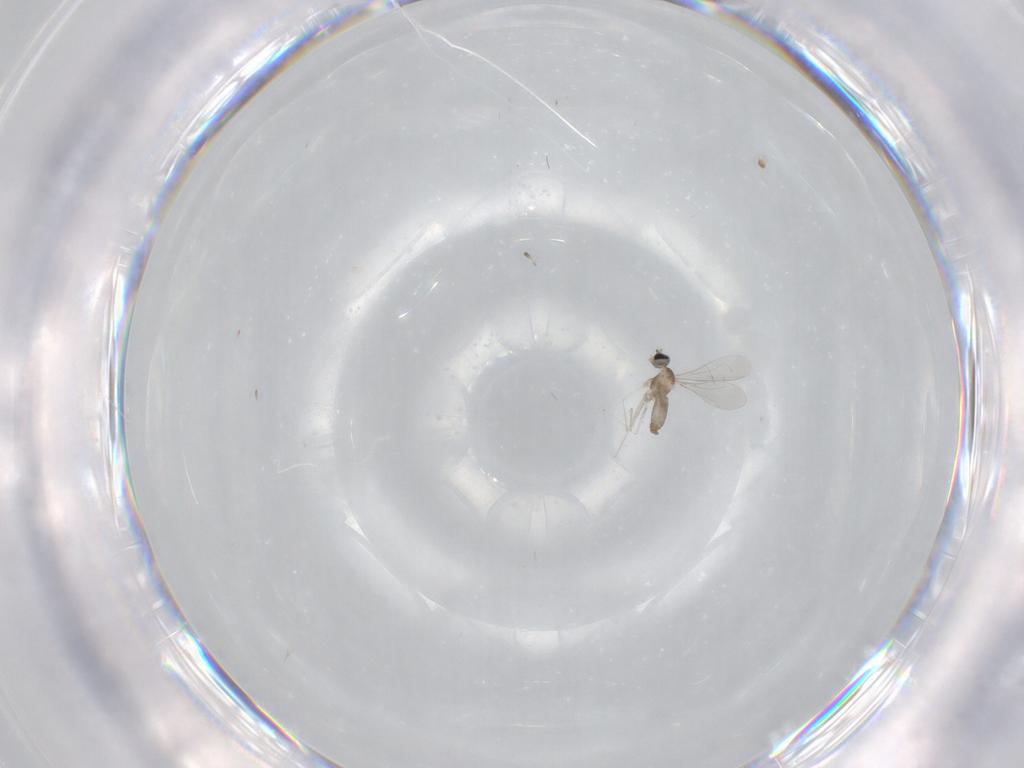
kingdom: Animalia
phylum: Arthropoda
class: Insecta
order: Diptera
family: Cecidomyiidae
